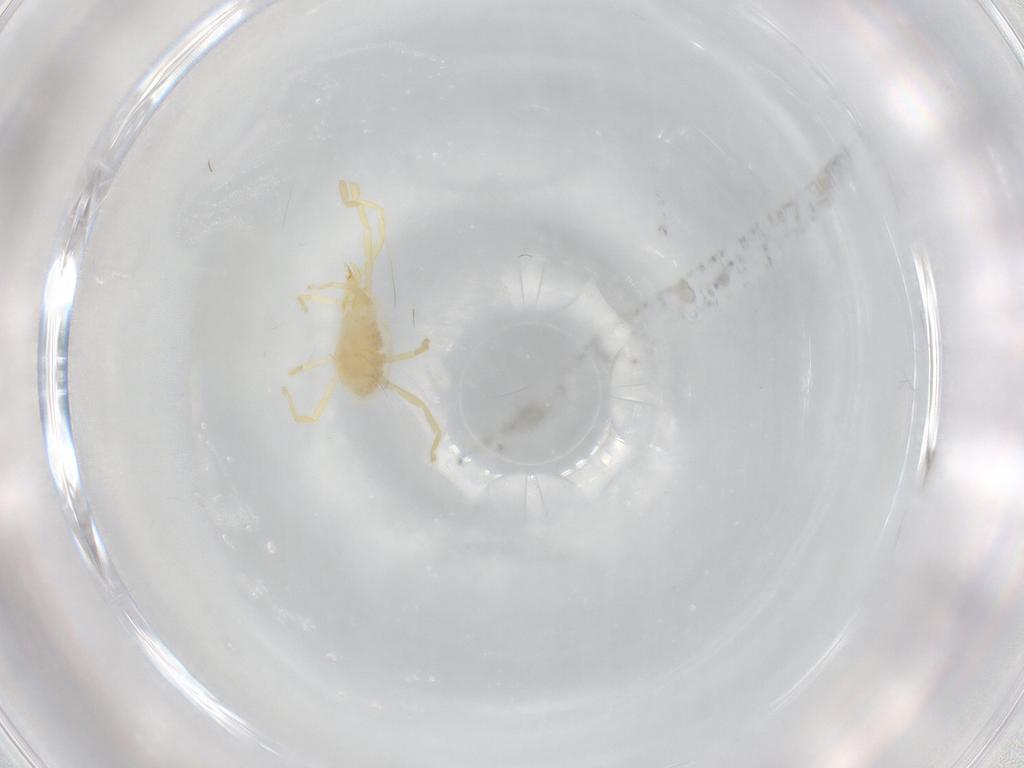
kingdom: Animalia
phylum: Arthropoda
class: Arachnida
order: Trombidiformes
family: Erythraeidae
